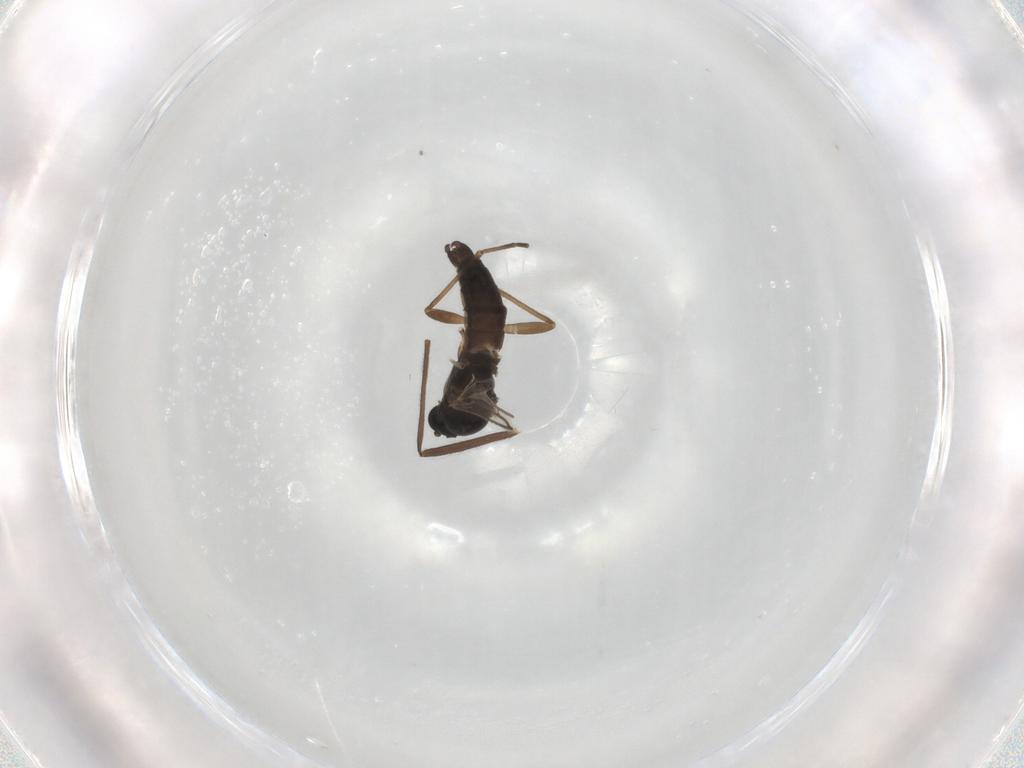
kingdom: Animalia
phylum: Arthropoda
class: Insecta
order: Diptera
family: Chironomidae
